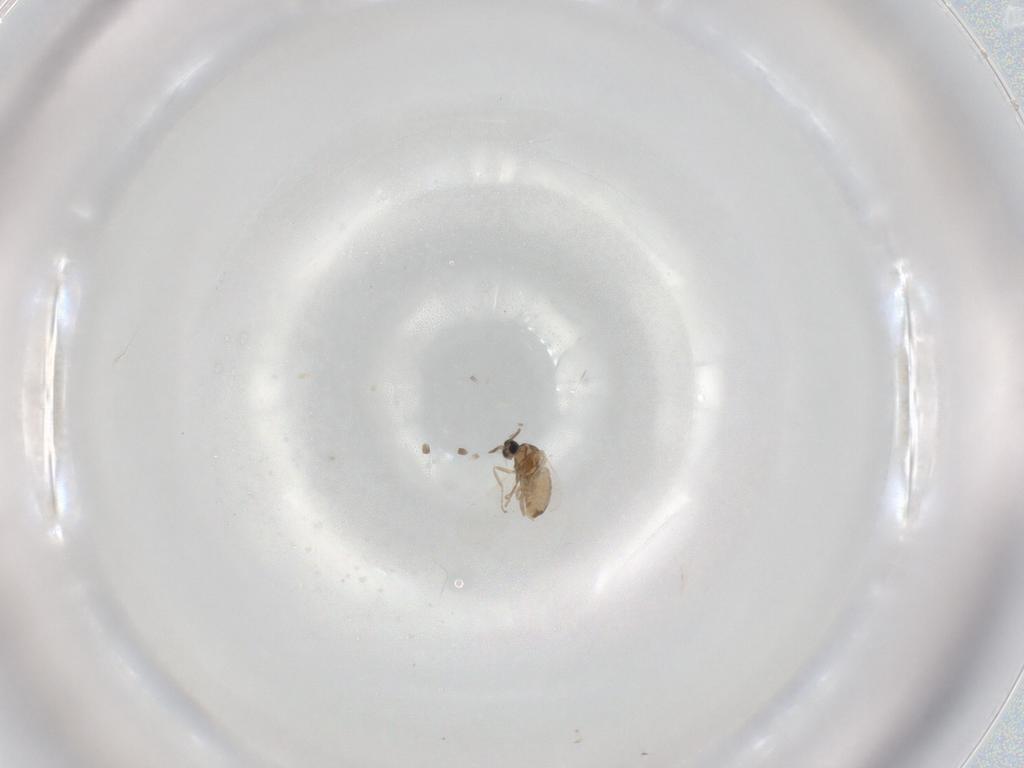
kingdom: Animalia
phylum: Arthropoda
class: Insecta
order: Diptera
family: Cecidomyiidae
